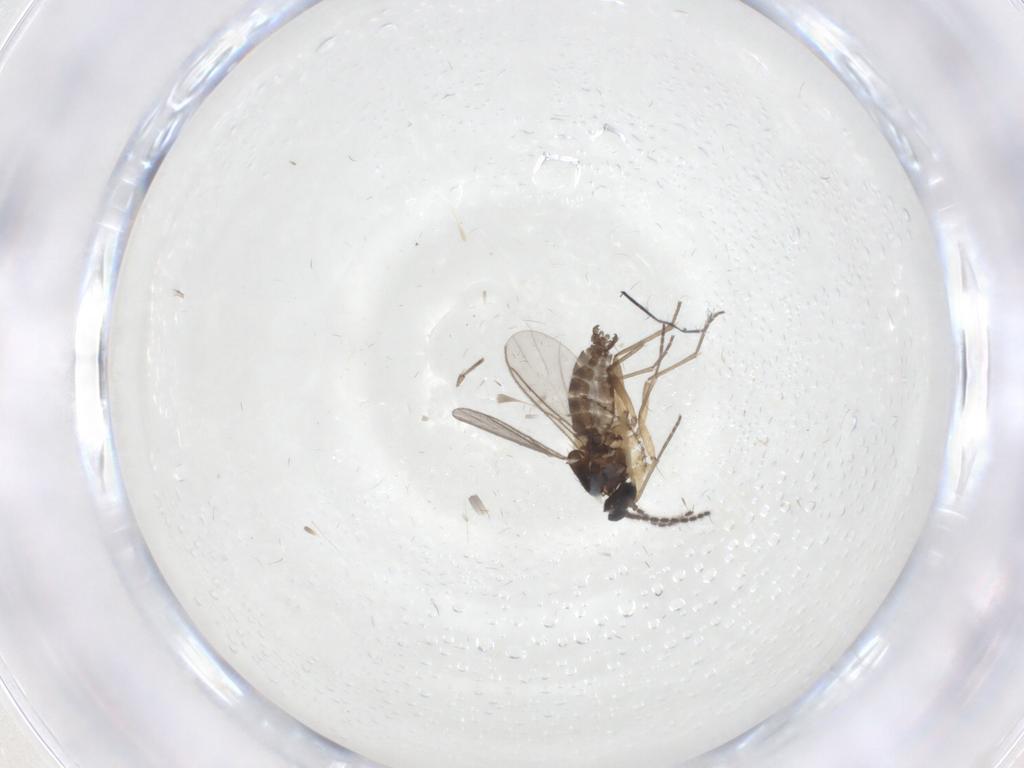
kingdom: Animalia
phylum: Arthropoda
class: Insecta
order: Diptera
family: Sciaridae
